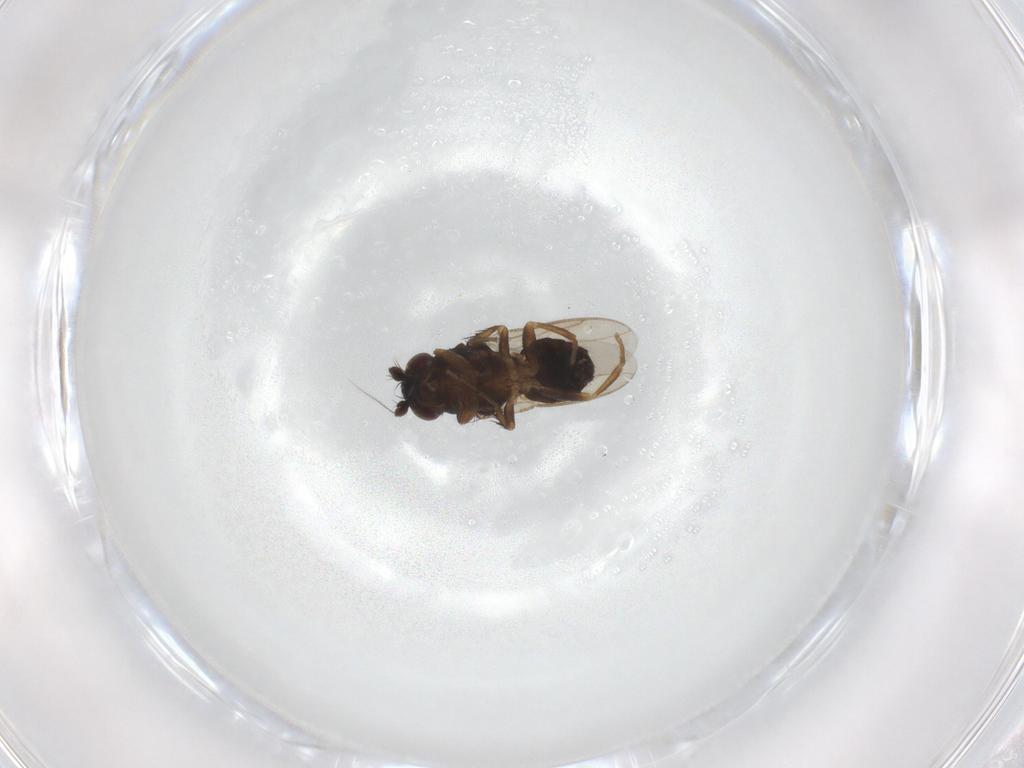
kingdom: Animalia
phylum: Arthropoda
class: Insecta
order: Diptera
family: Sphaeroceridae
